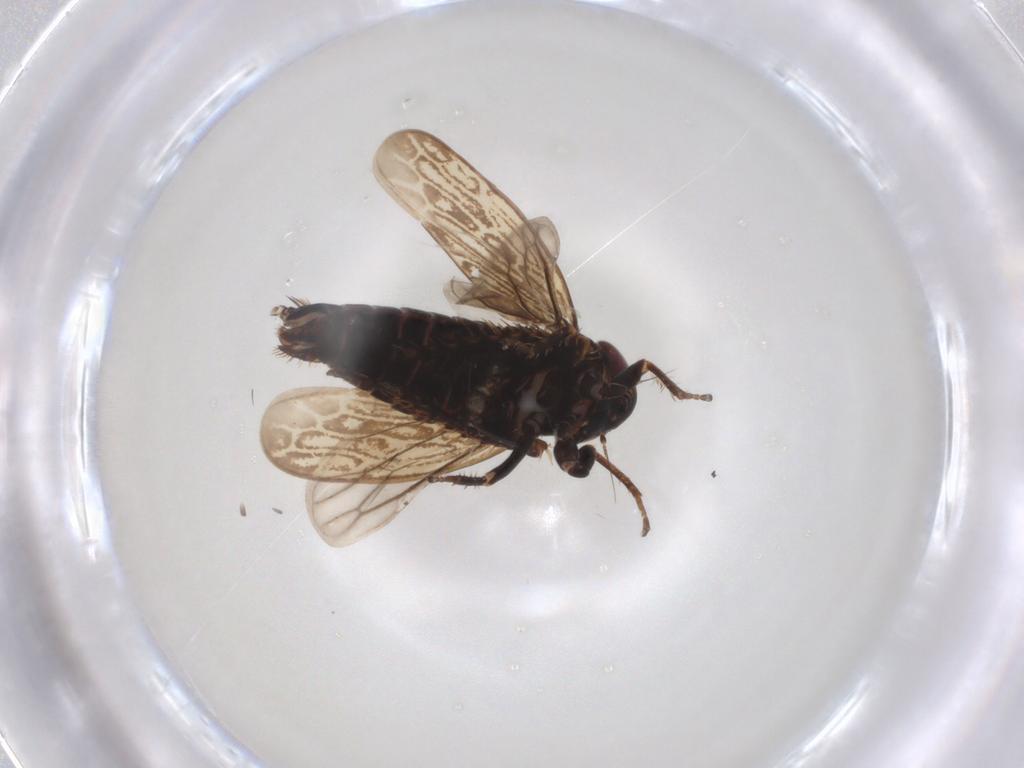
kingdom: Animalia
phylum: Arthropoda
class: Insecta
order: Hemiptera
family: Cicadellidae
